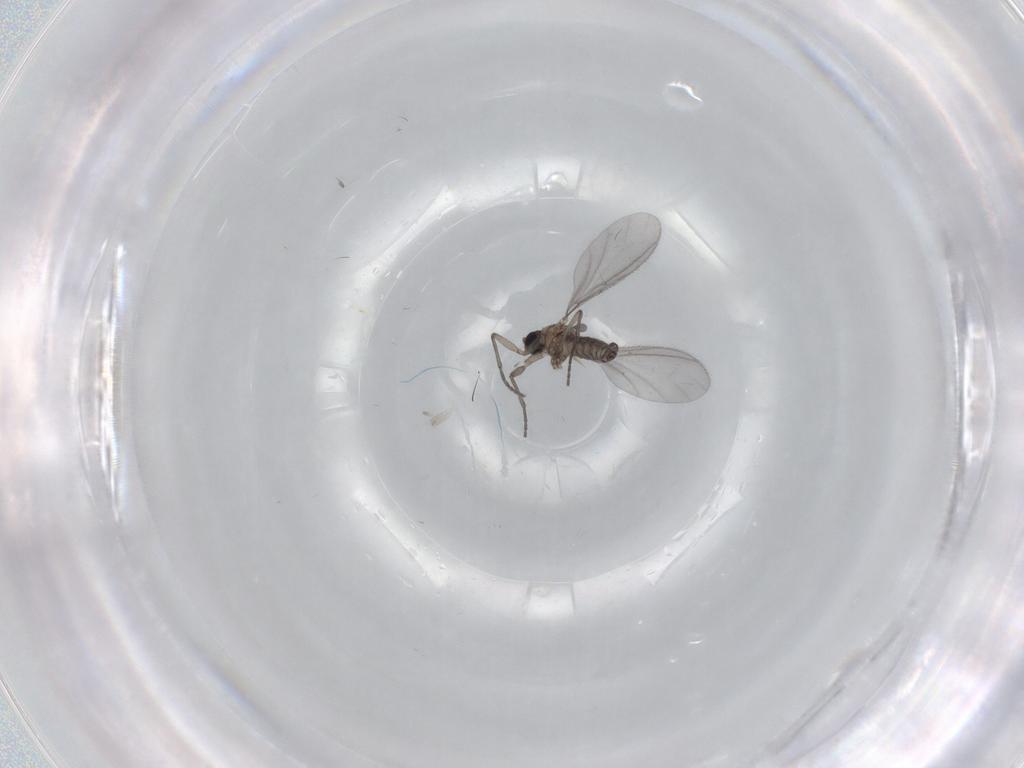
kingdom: Animalia
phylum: Arthropoda
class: Insecta
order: Diptera
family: Sciaridae
